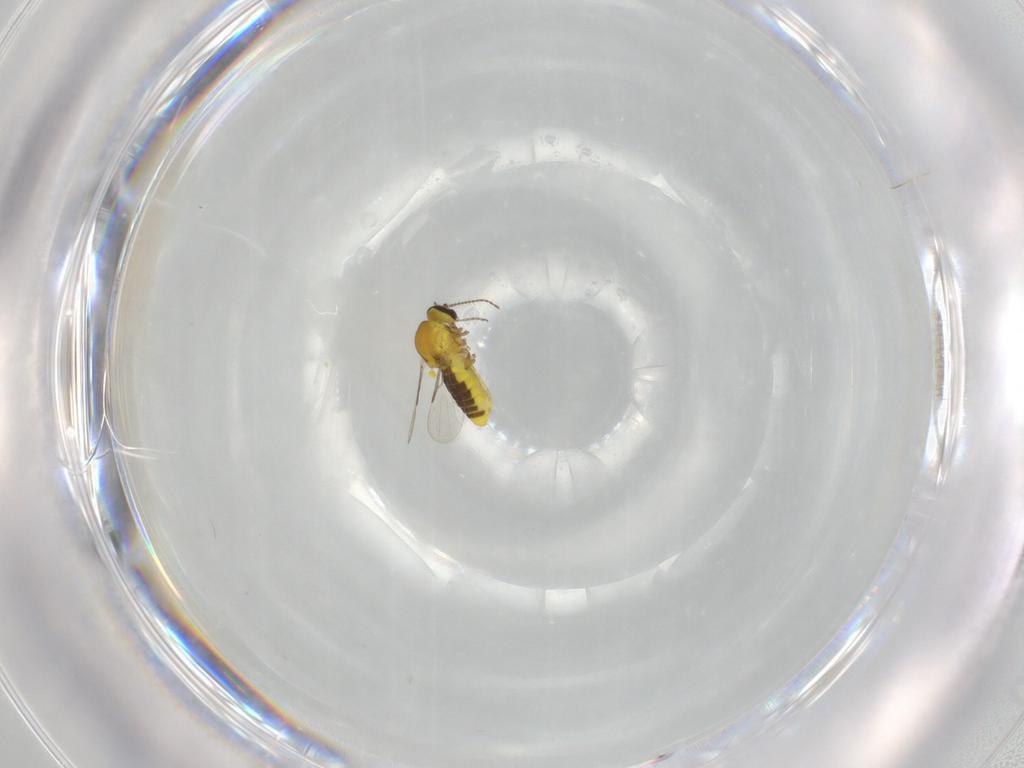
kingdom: Animalia
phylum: Arthropoda
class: Insecta
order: Diptera
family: Ceratopogonidae
